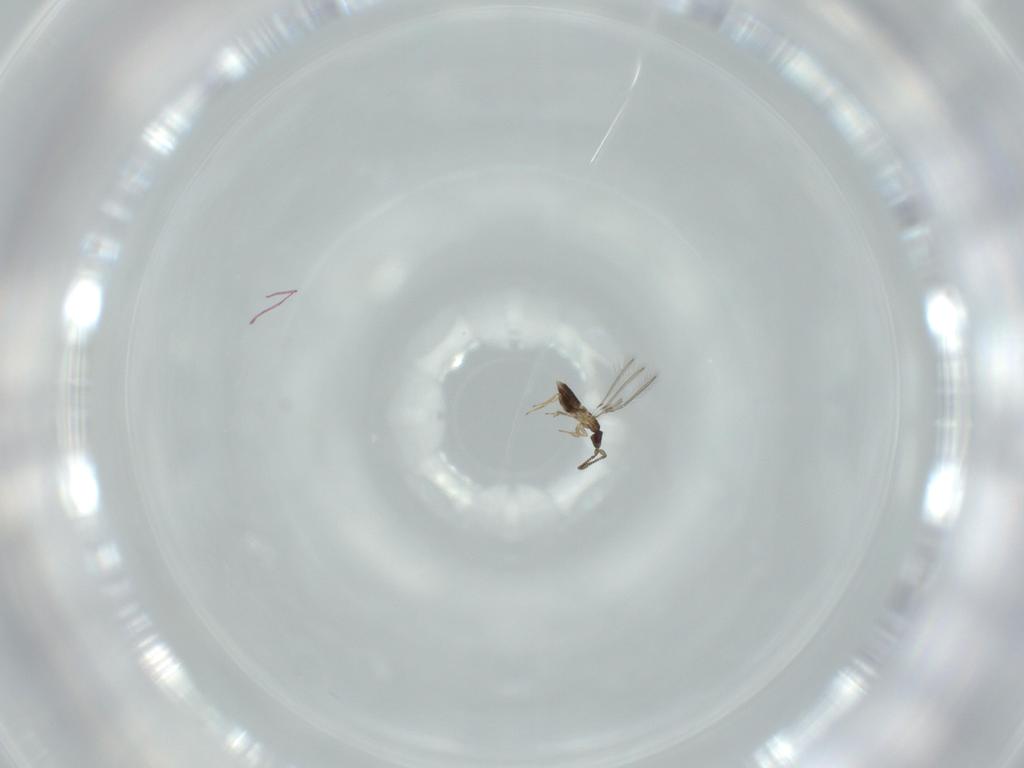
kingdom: Animalia
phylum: Arthropoda
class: Insecta
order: Hymenoptera
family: Mymaridae
